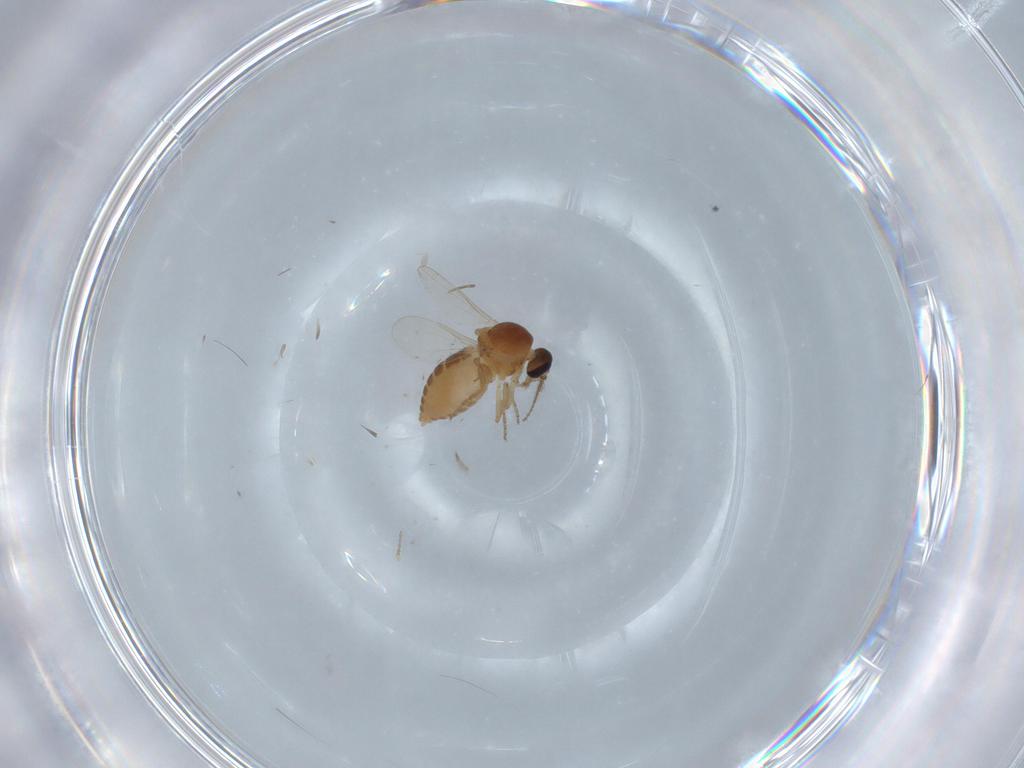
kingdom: Animalia
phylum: Arthropoda
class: Insecta
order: Diptera
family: Ceratopogonidae
